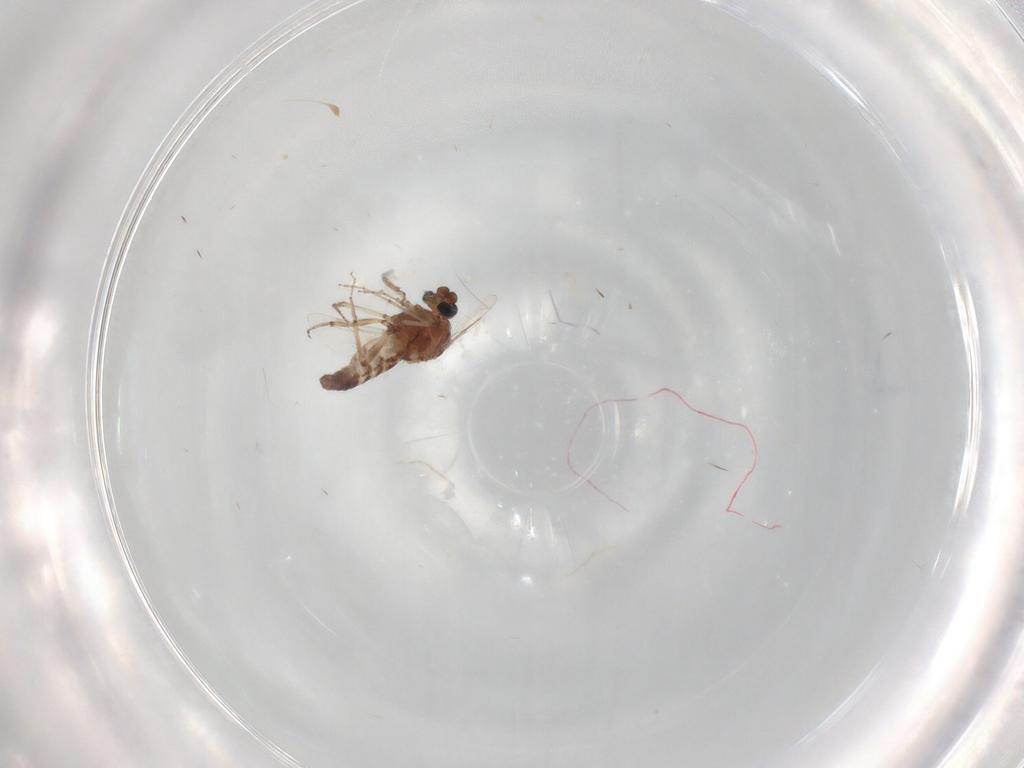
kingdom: Animalia
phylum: Arthropoda
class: Insecta
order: Diptera
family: Ceratopogonidae
